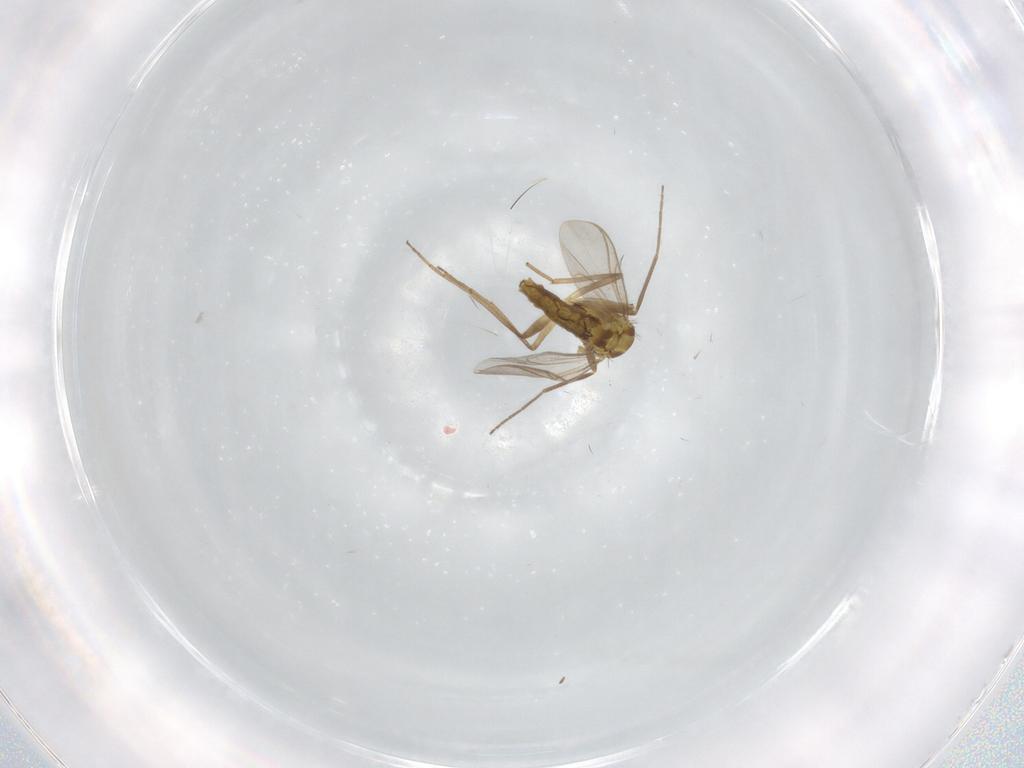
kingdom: Animalia
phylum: Arthropoda
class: Insecta
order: Diptera
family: Chironomidae
